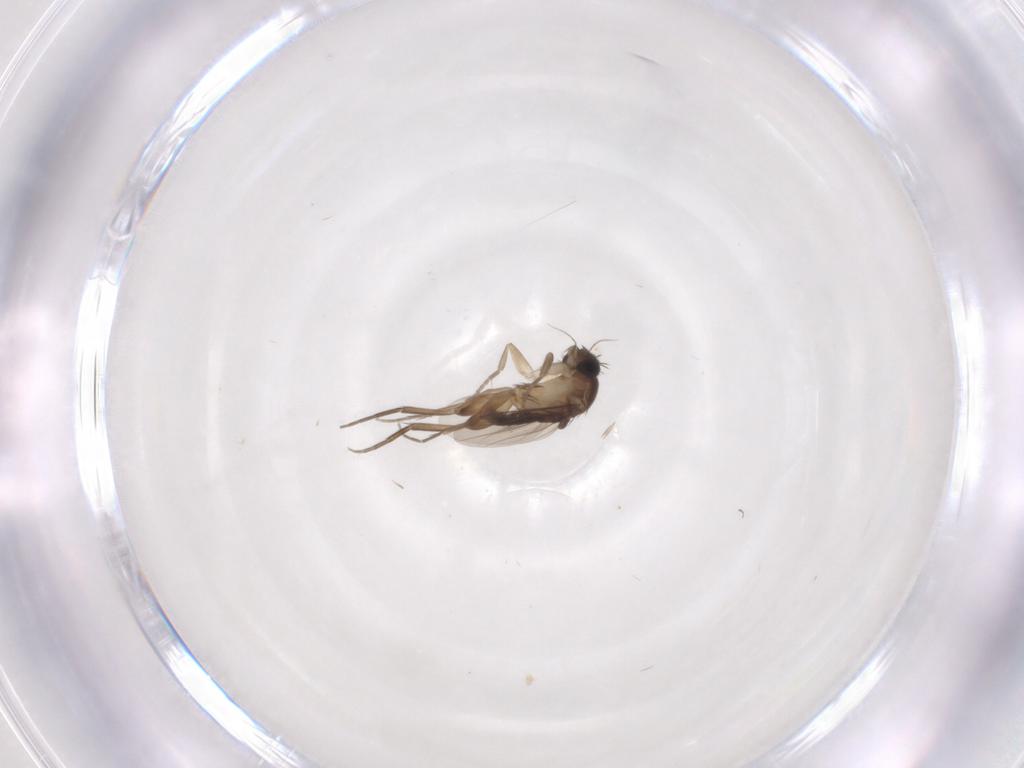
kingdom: Animalia
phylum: Arthropoda
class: Insecta
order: Diptera
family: Chironomidae
